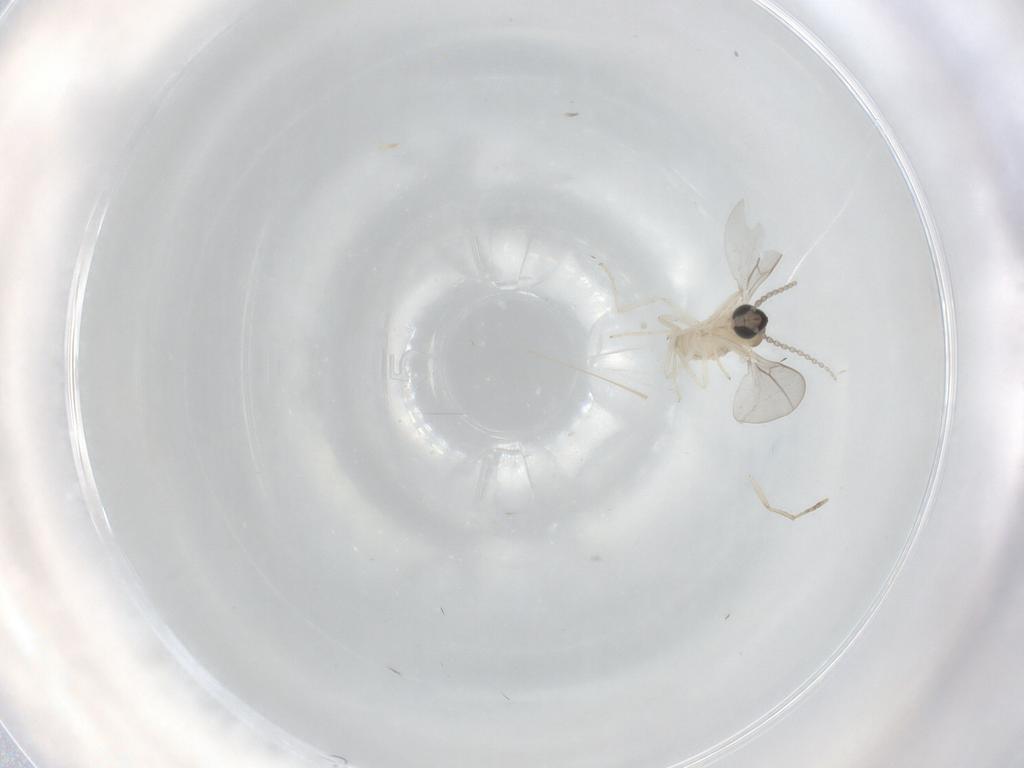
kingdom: Animalia
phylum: Arthropoda
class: Insecta
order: Diptera
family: Cecidomyiidae
